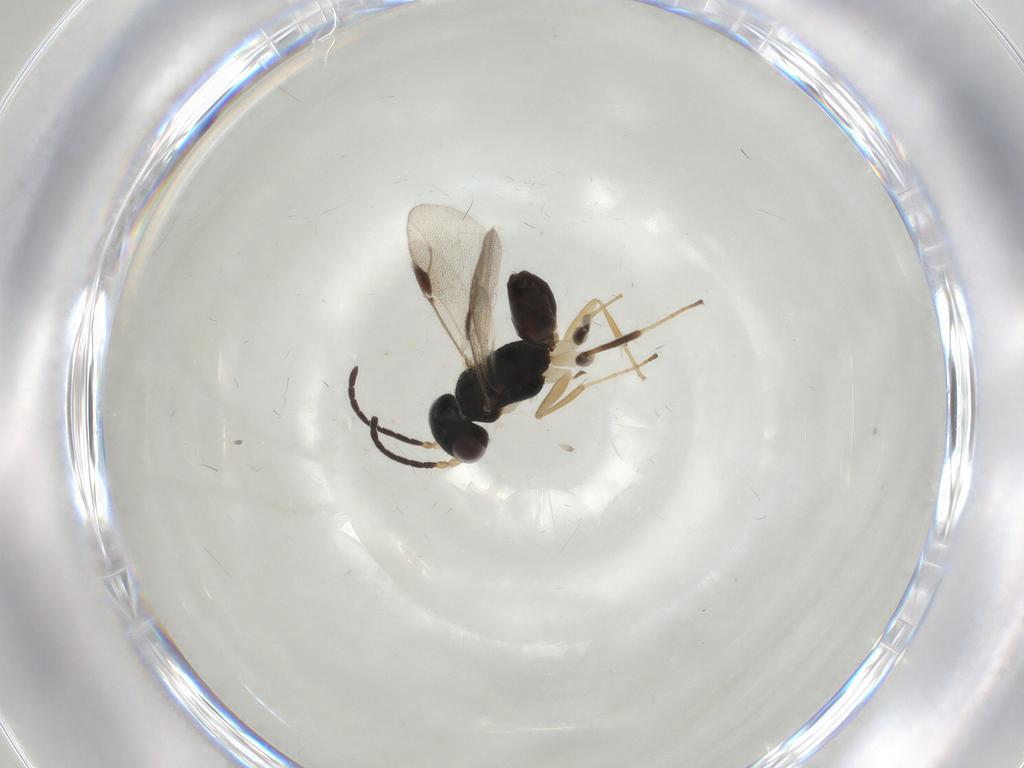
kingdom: Animalia
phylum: Arthropoda
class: Insecta
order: Hymenoptera
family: Dryinidae
